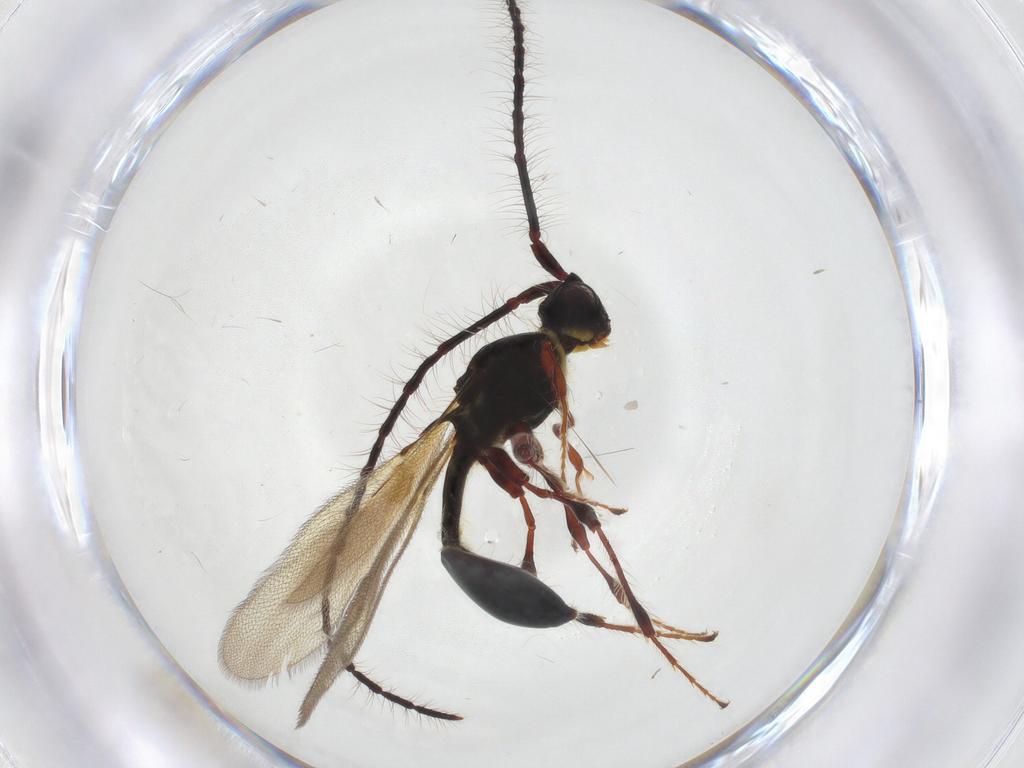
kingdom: Animalia
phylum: Arthropoda
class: Insecta
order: Hymenoptera
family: Diapriidae
